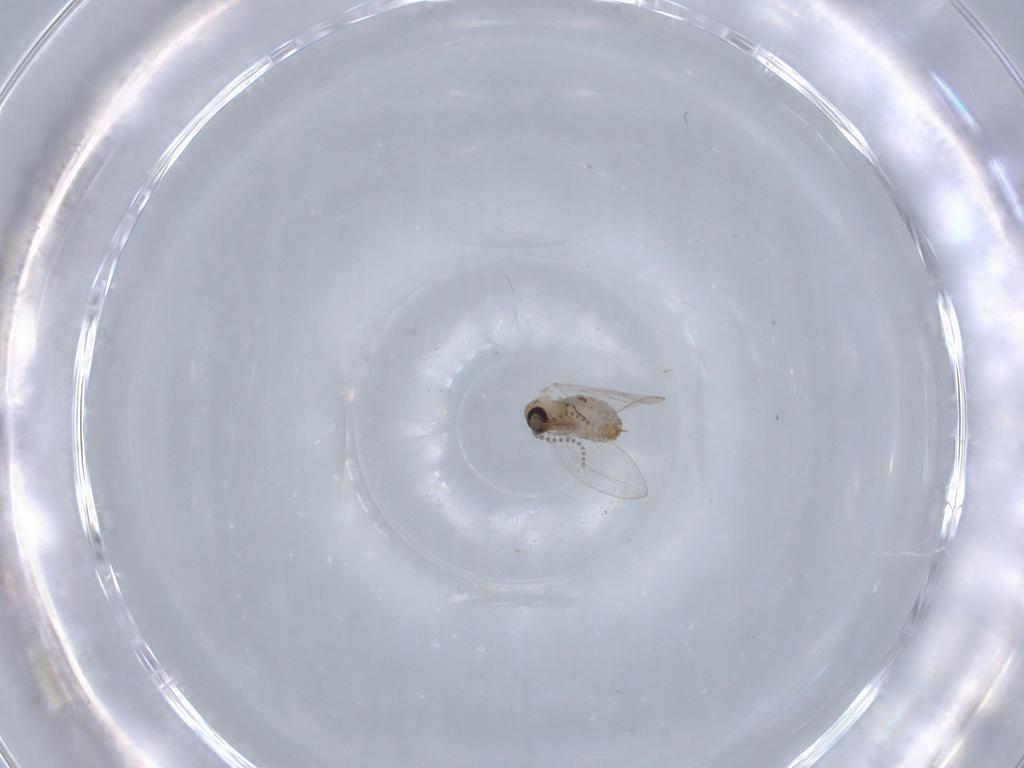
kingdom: Animalia
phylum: Arthropoda
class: Insecta
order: Diptera
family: Psychodidae
